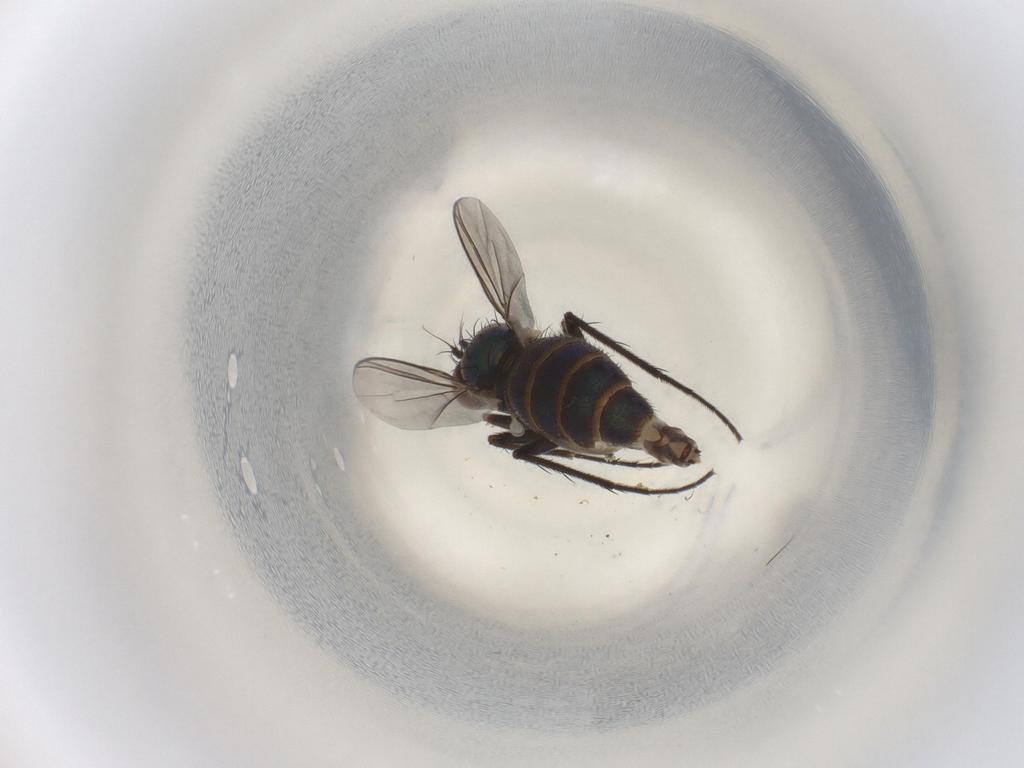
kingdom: Animalia
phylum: Arthropoda
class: Insecta
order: Diptera
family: Dolichopodidae
